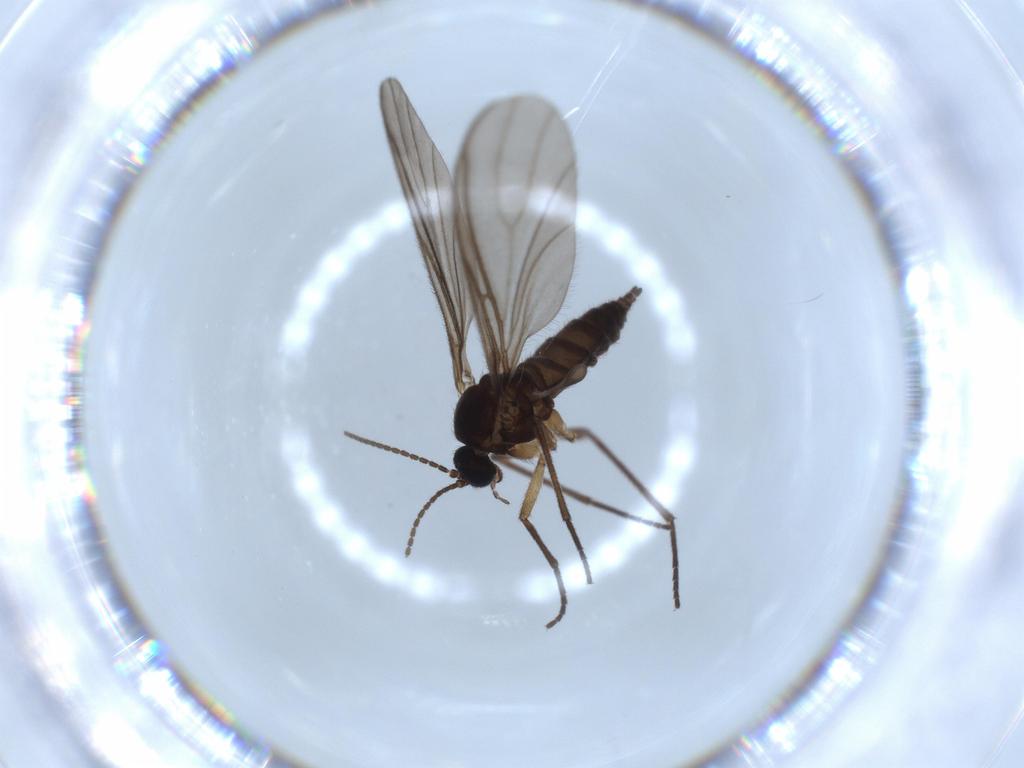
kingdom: Animalia
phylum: Arthropoda
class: Insecta
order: Diptera
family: Sciaridae
